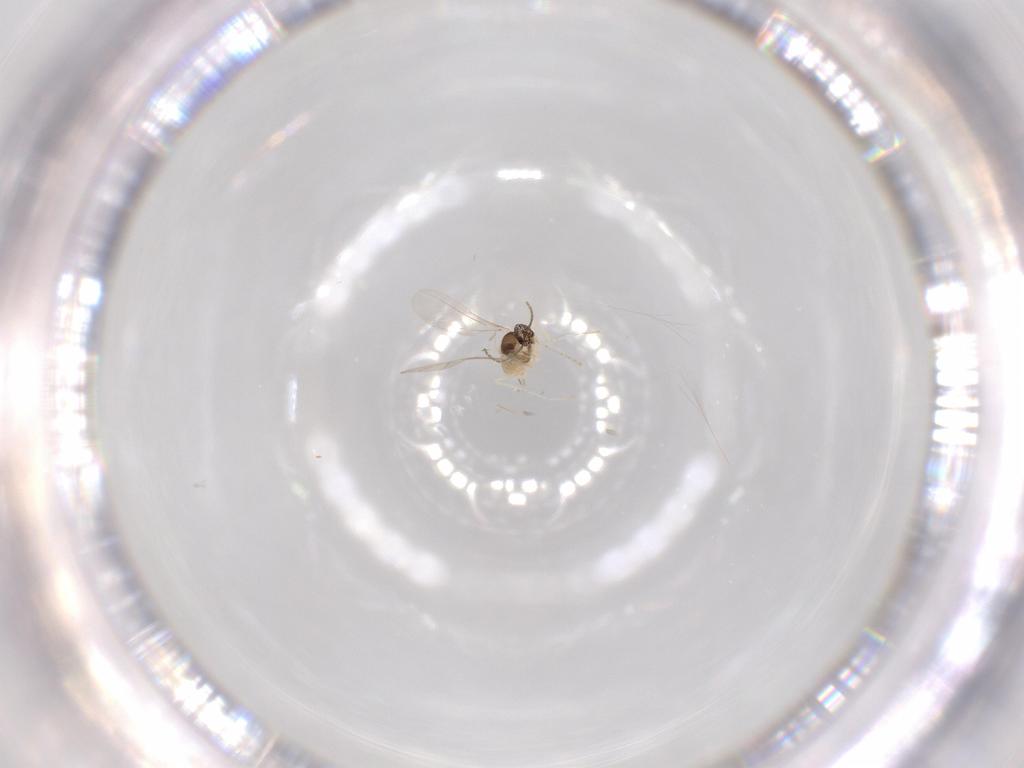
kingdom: Animalia
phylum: Arthropoda
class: Insecta
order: Diptera
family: Cecidomyiidae
